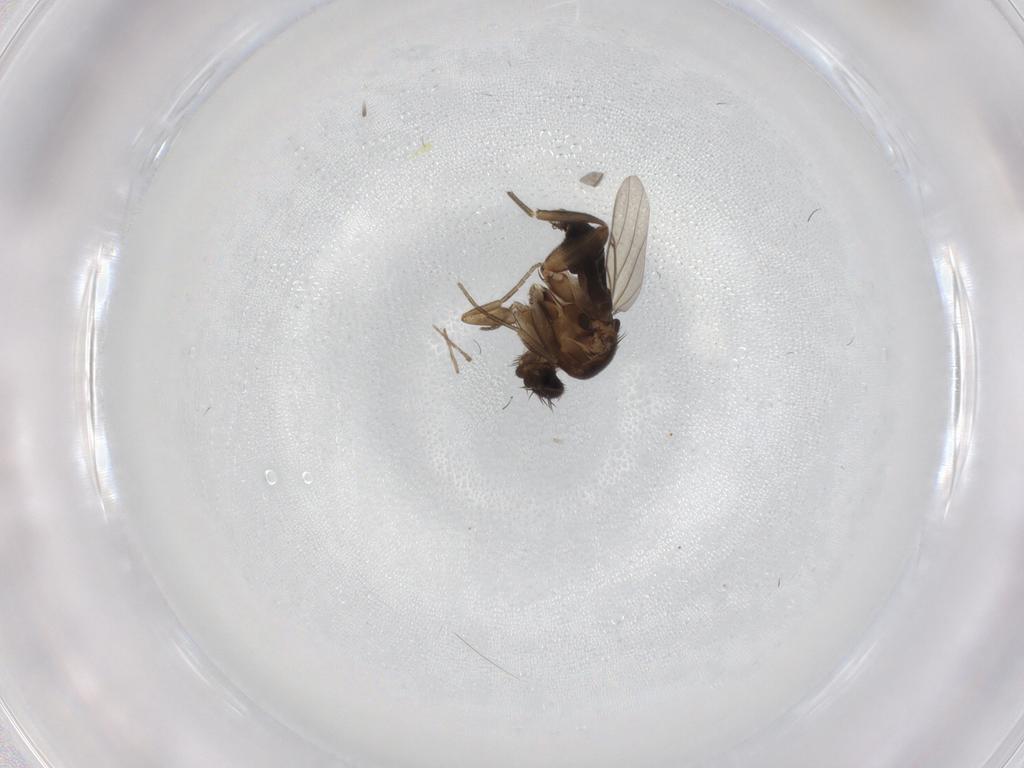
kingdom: Animalia
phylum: Arthropoda
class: Insecta
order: Diptera
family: Phoridae
